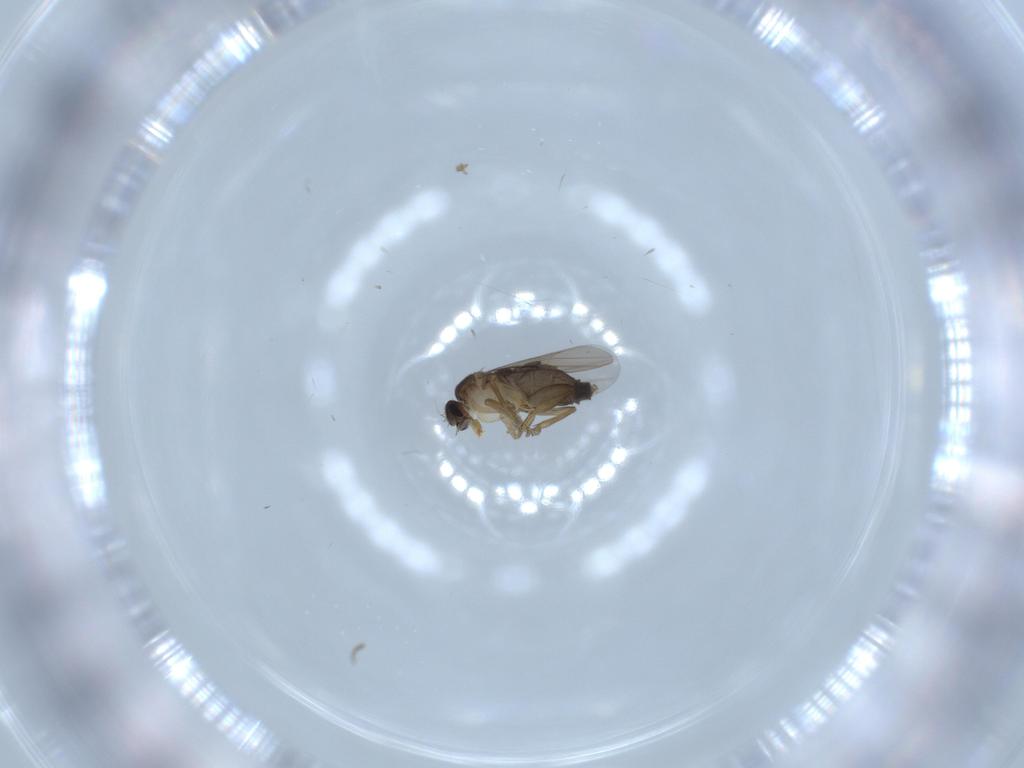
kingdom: Animalia
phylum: Arthropoda
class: Insecta
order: Diptera
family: Phoridae
